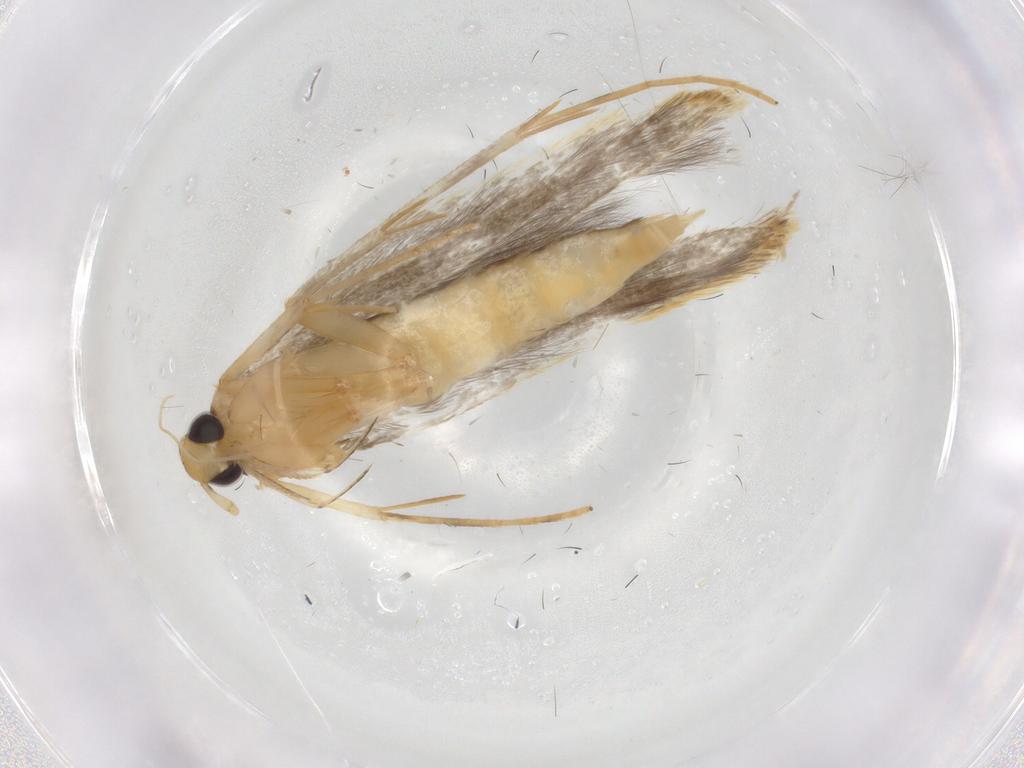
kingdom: Animalia
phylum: Arthropoda
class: Insecta
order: Lepidoptera
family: Pterolonchidae
